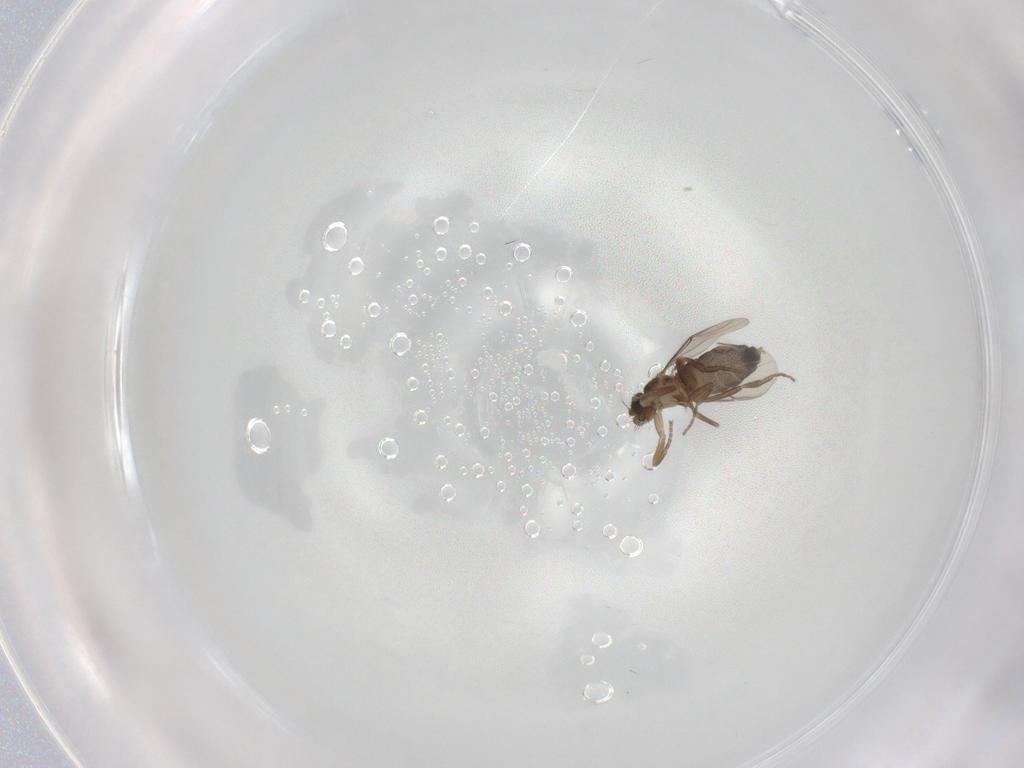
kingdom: Animalia
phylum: Arthropoda
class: Insecta
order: Diptera
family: Phoridae
